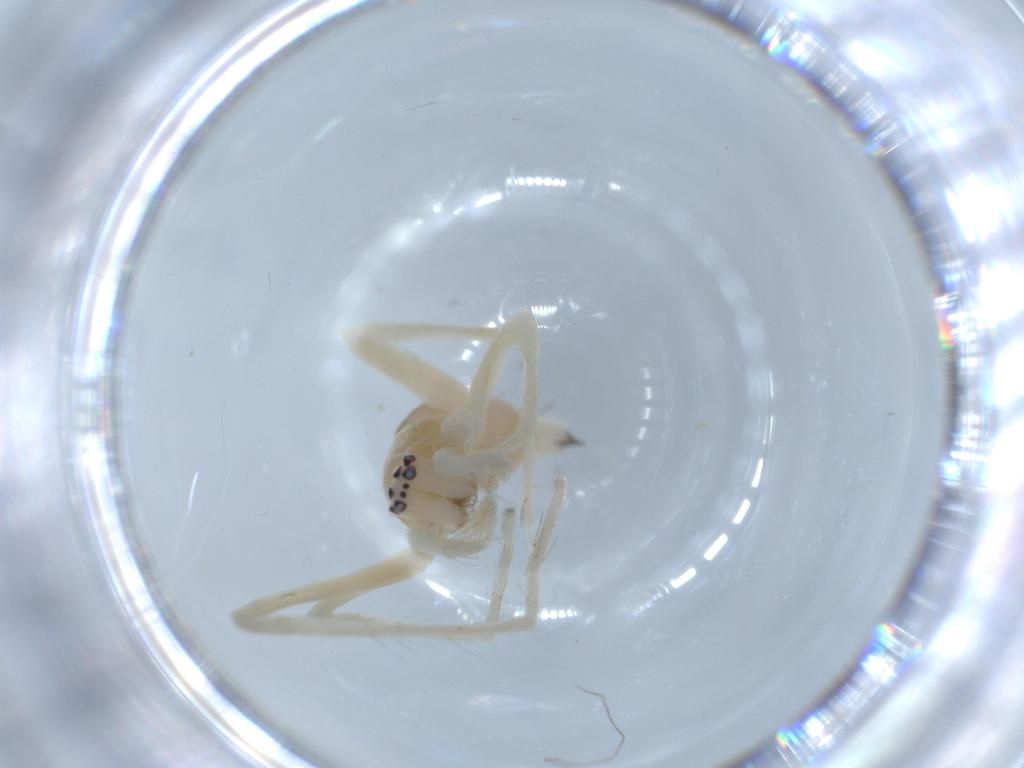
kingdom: Animalia
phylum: Arthropoda
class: Arachnida
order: Araneae
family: Anyphaenidae
